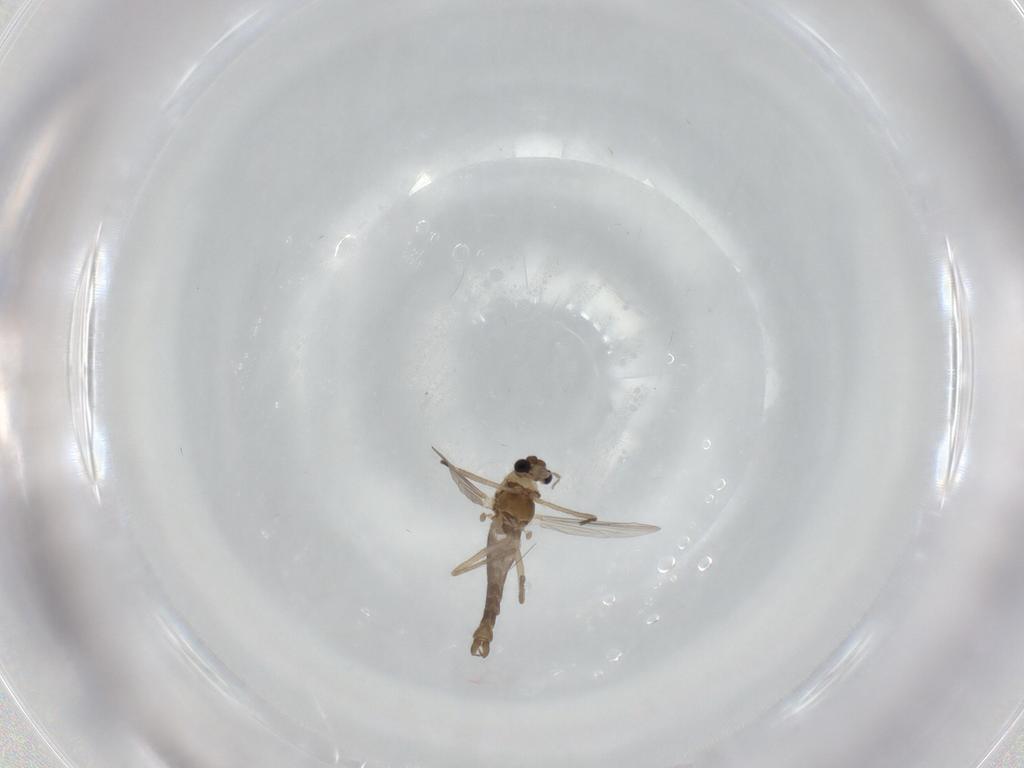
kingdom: Animalia
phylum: Arthropoda
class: Insecta
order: Diptera
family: Chironomidae
